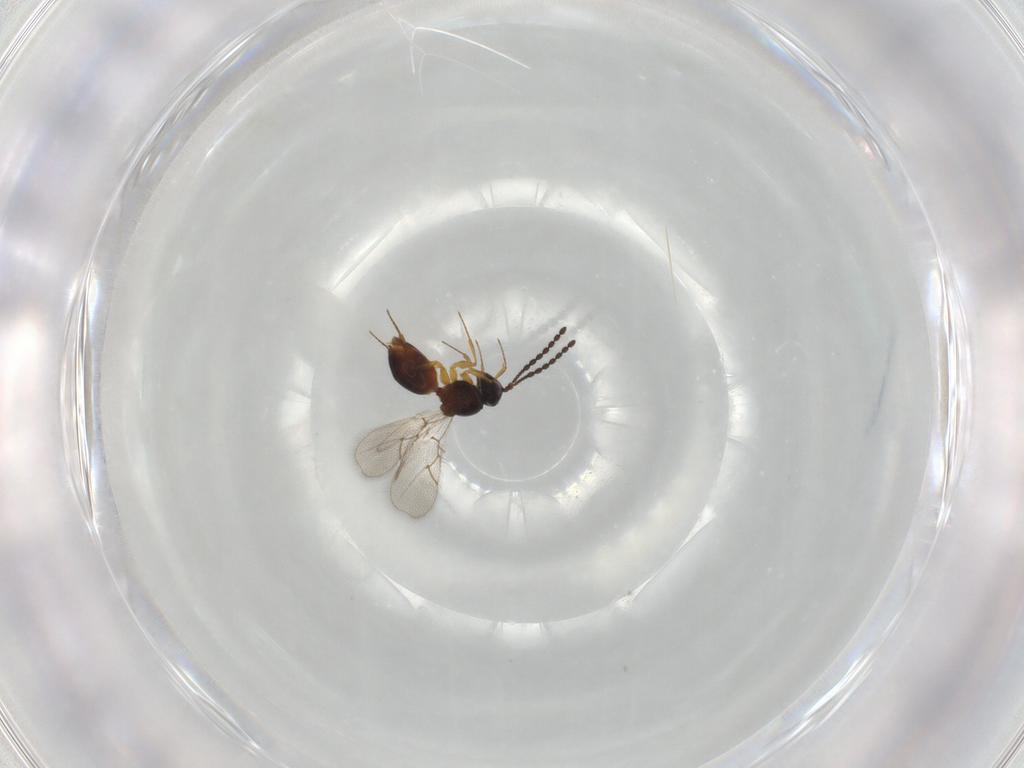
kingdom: Animalia
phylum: Arthropoda
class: Insecta
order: Hymenoptera
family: Figitidae
